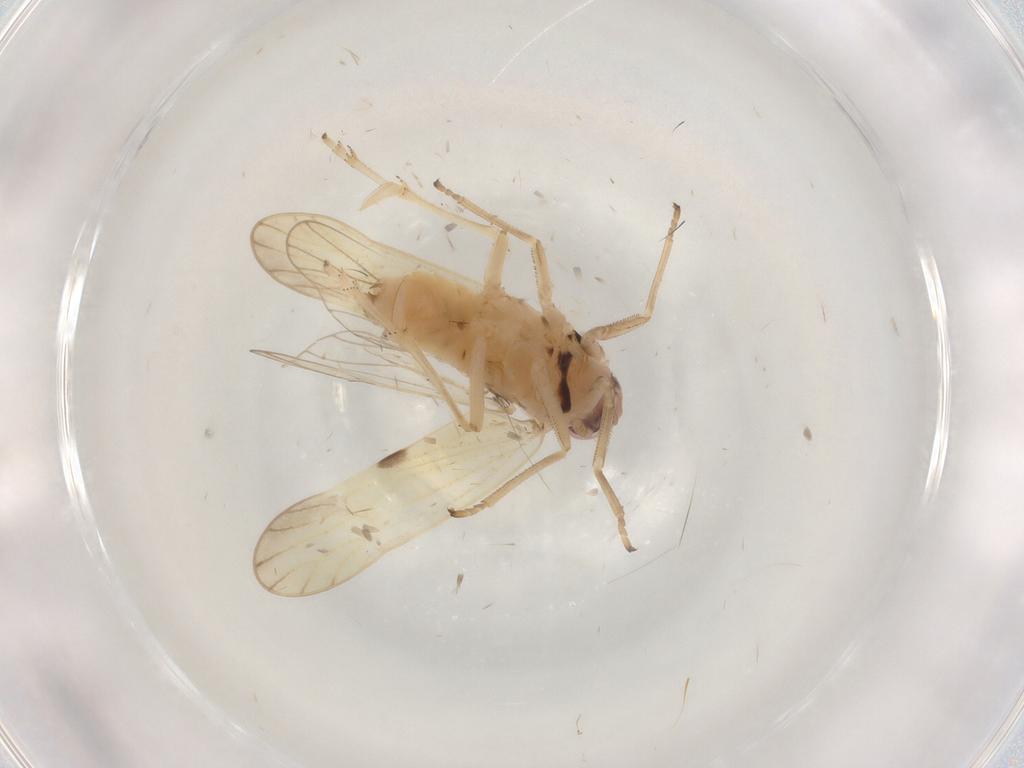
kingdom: Animalia
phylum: Arthropoda
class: Insecta
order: Hemiptera
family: Delphacidae
